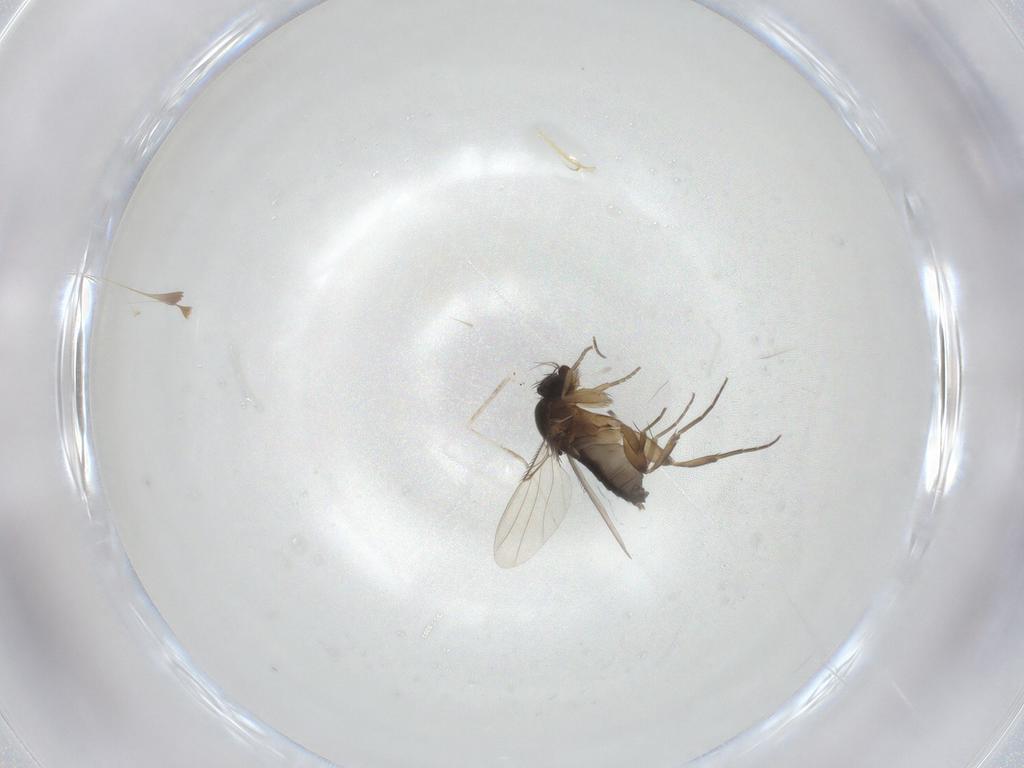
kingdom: Animalia
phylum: Arthropoda
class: Insecta
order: Diptera
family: Phoridae
